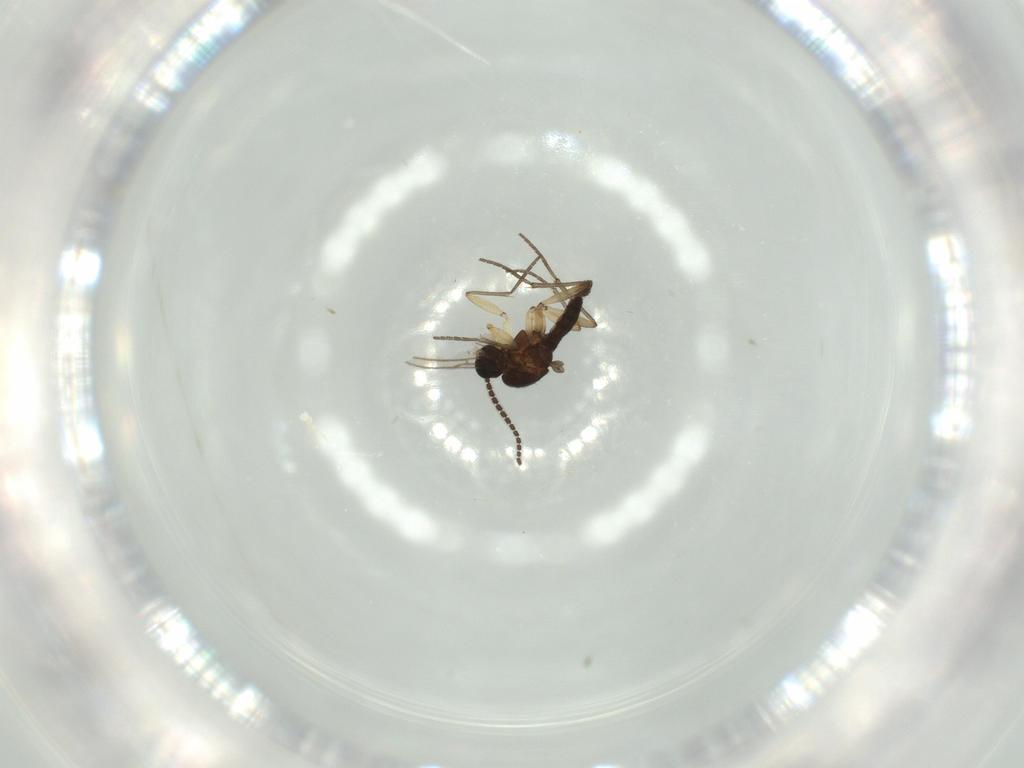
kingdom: Animalia
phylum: Arthropoda
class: Insecta
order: Diptera
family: Sciaridae
